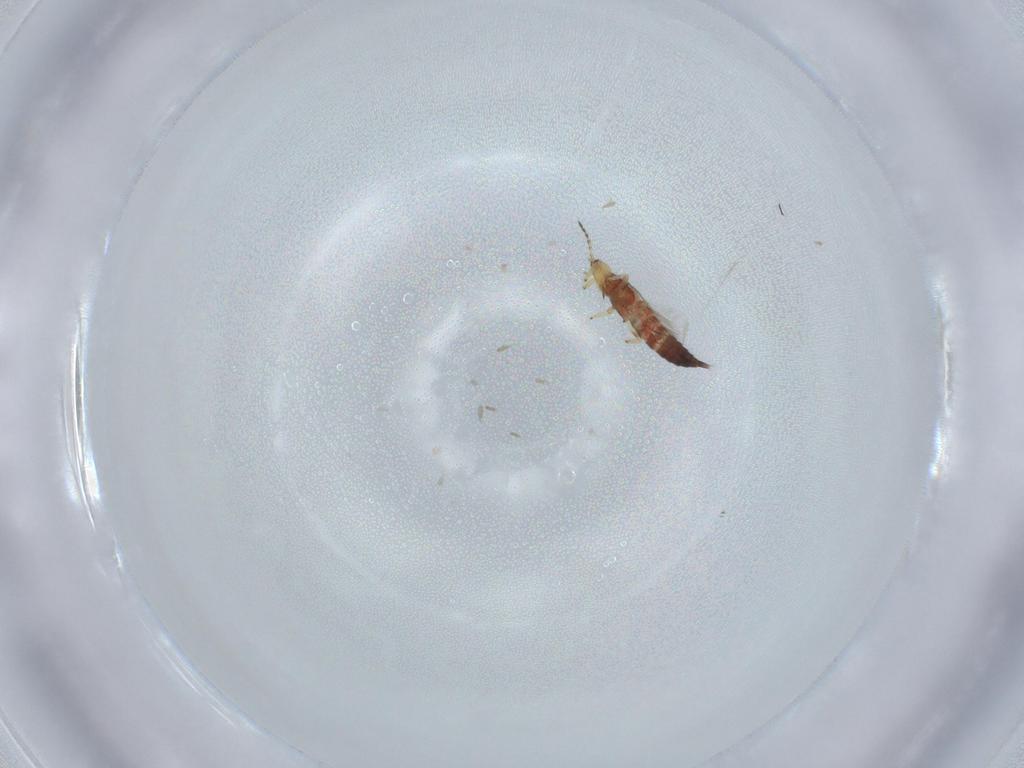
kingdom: Animalia
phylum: Arthropoda
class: Insecta
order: Thysanoptera
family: Phlaeothripidae
